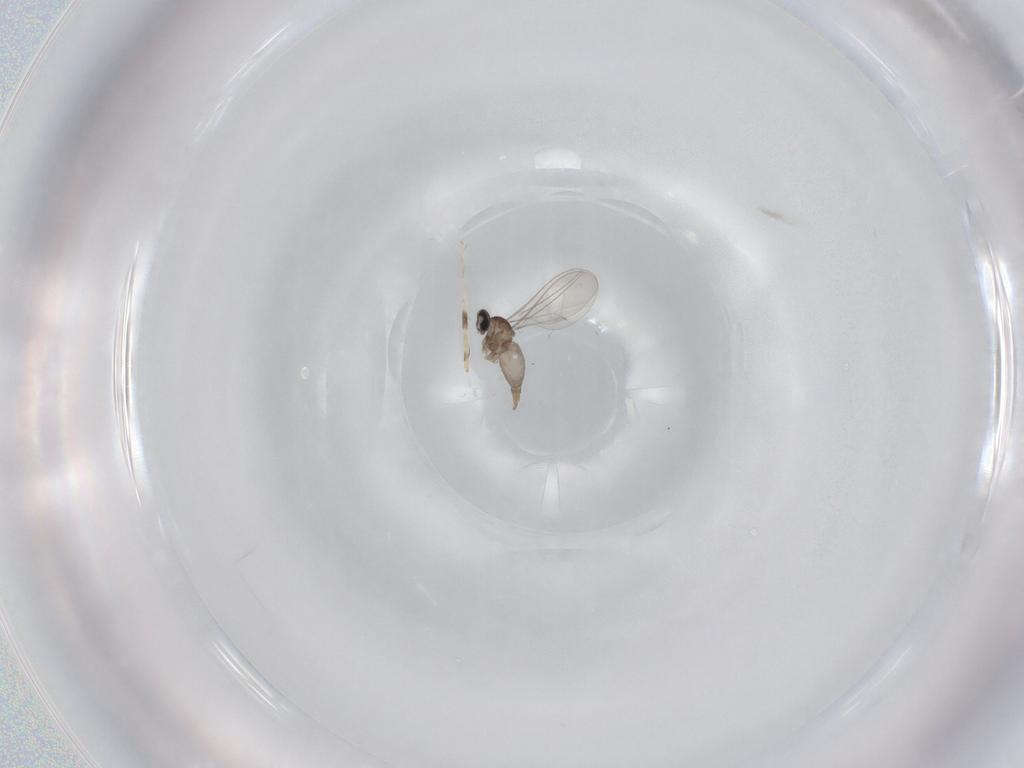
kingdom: Animalia
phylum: Arthropoda
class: Insecta
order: Diptera
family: Cecidomyiidae
